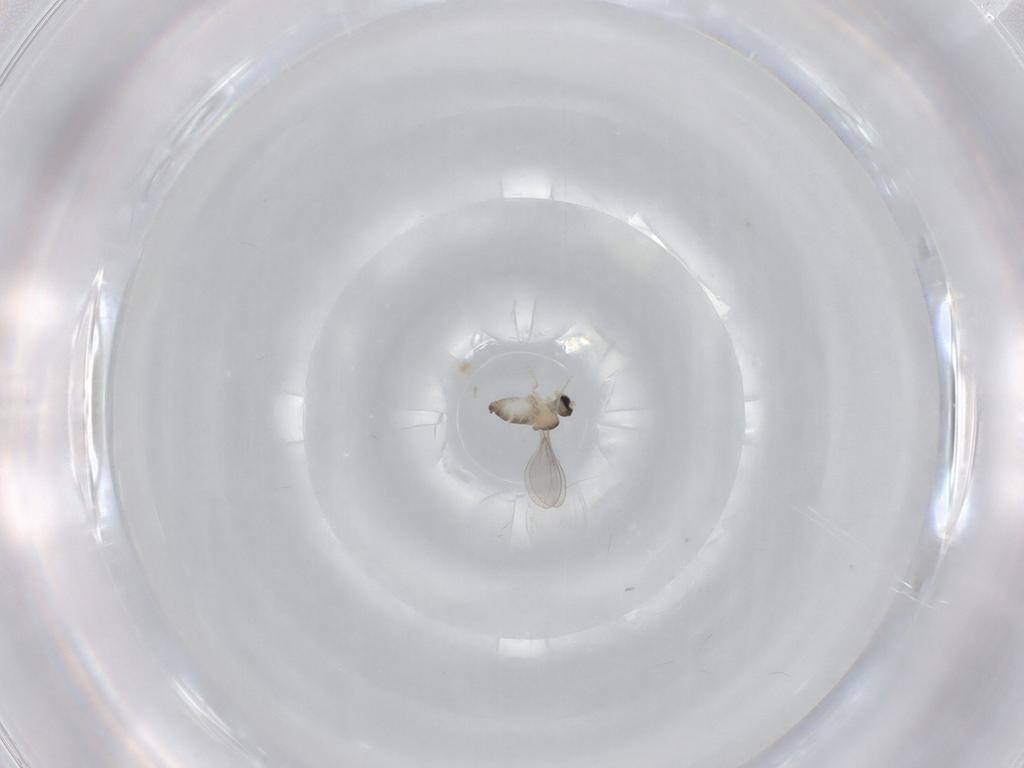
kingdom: Animalia
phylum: Arthropoda
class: Insecta
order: Diptera
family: Cecidomyiidae
